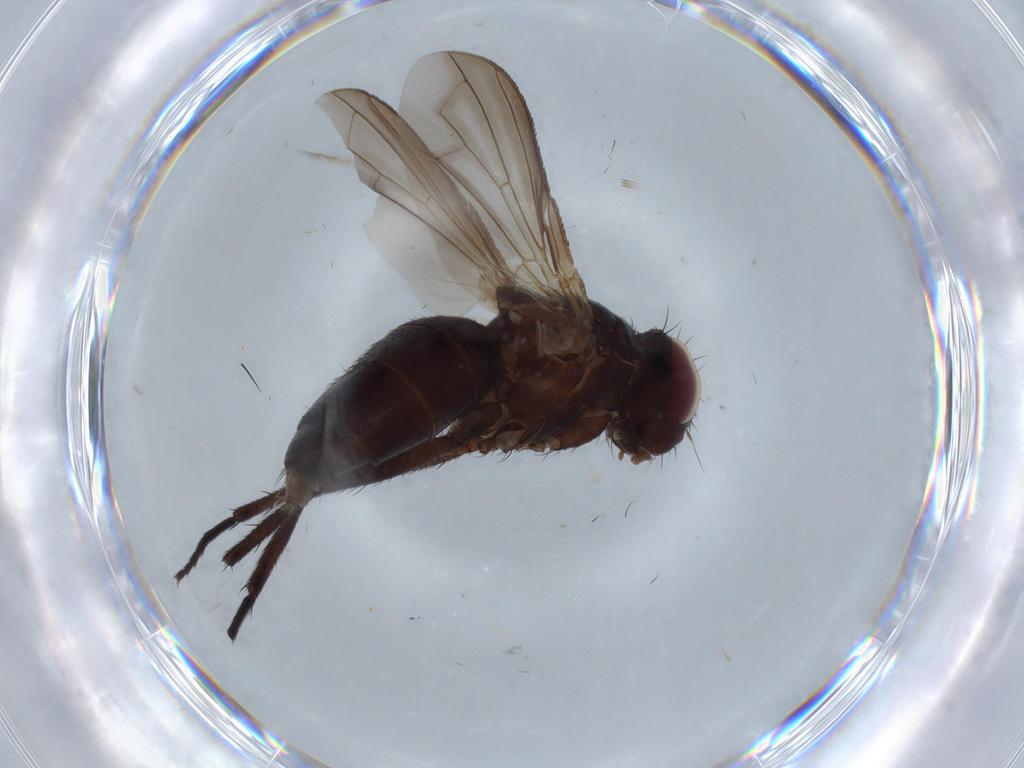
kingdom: Animalia
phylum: Arthropoda
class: Insecta
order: Diptera
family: Tachinidae
